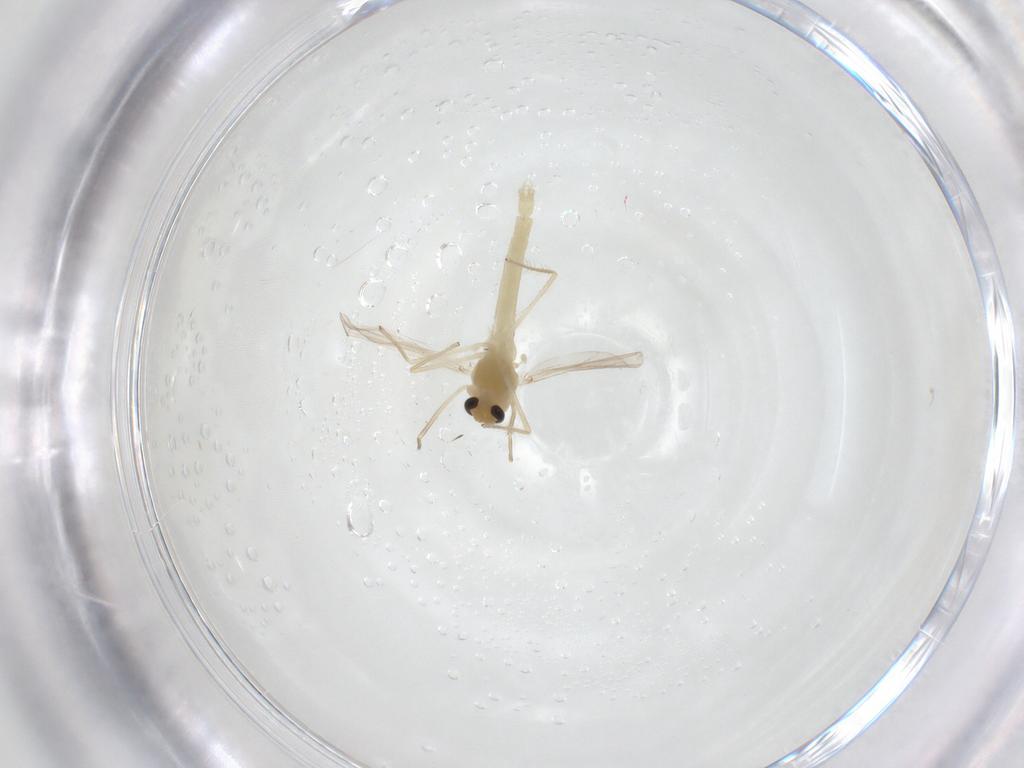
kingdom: Animalia
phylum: Arthropoda
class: Insecta
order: Diptera
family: Chironomidae
